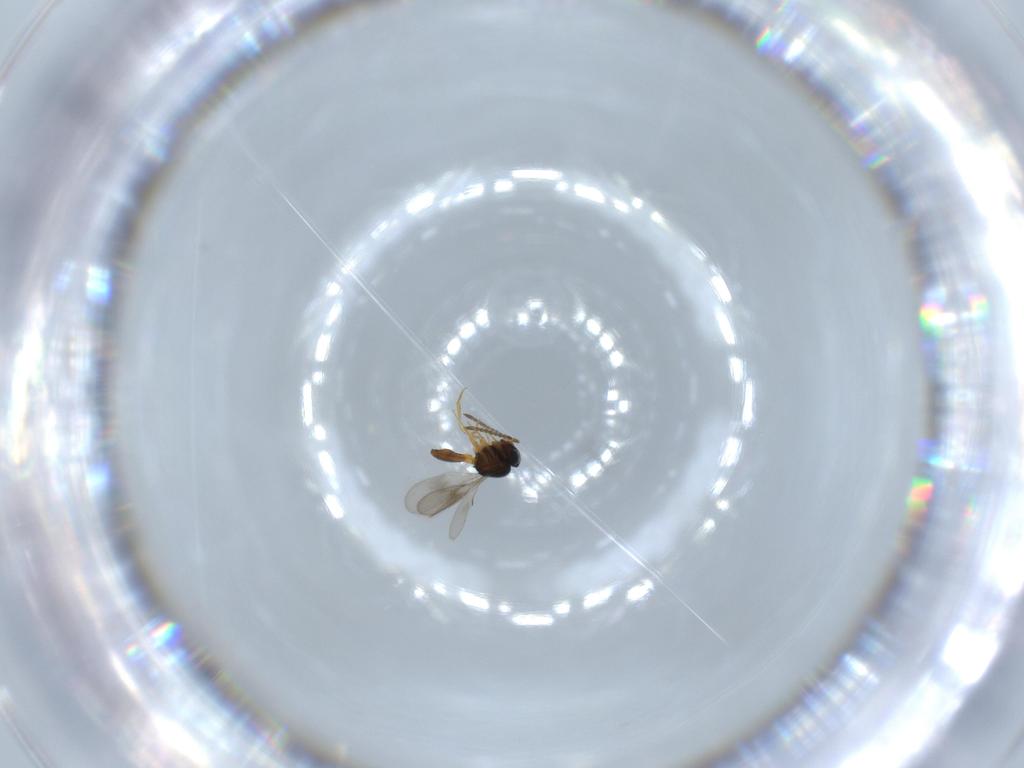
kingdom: Animalia
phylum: Arthropoda
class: Insecta
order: Hymenoptera
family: Scelionidae
